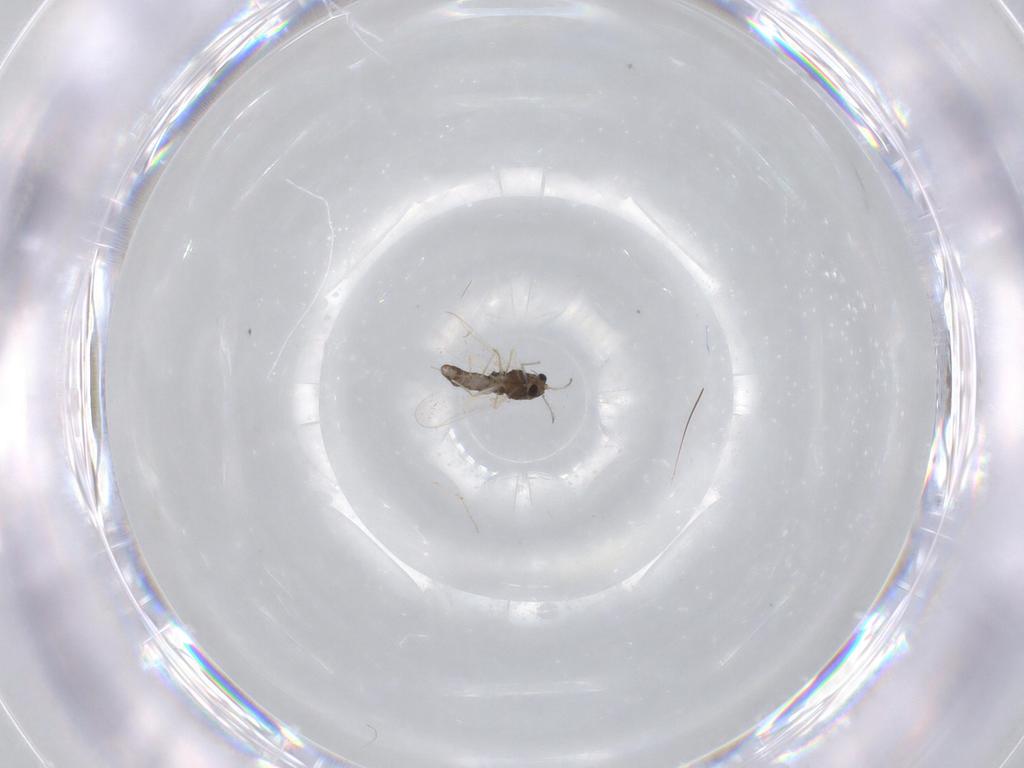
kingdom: Animalia
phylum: Arthropoda
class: Insecta
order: Diptera
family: Chironomidae
